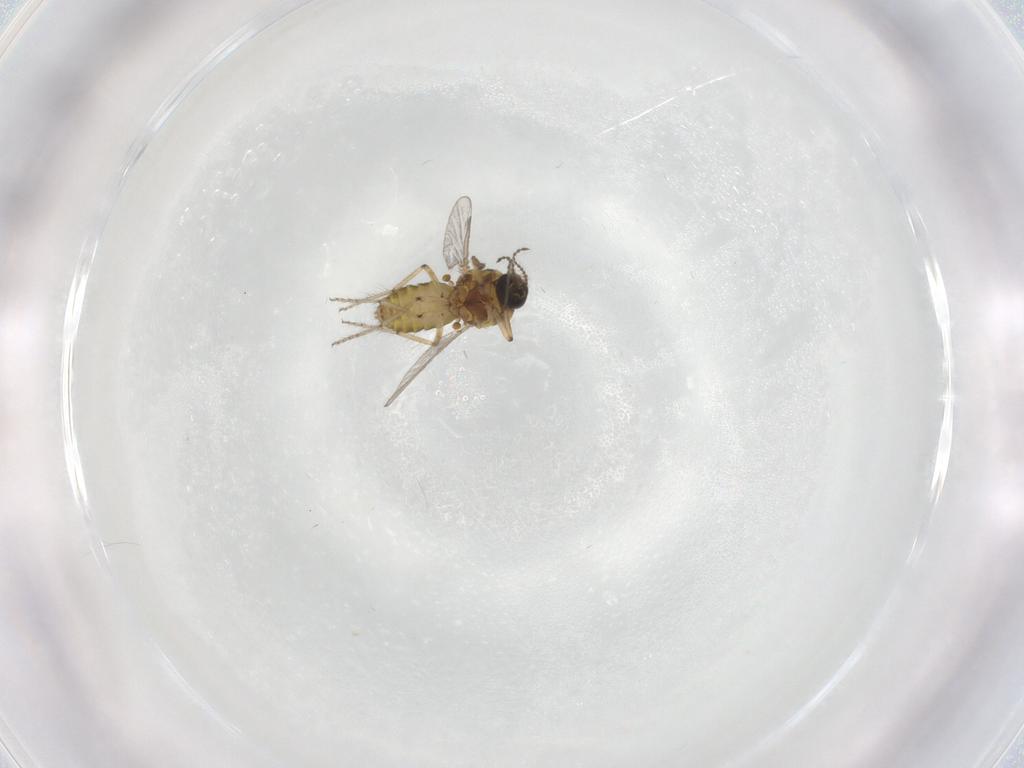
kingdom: Animalia
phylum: Arthropoda
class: Insecta
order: Diptera
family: Ceratopogonidae
